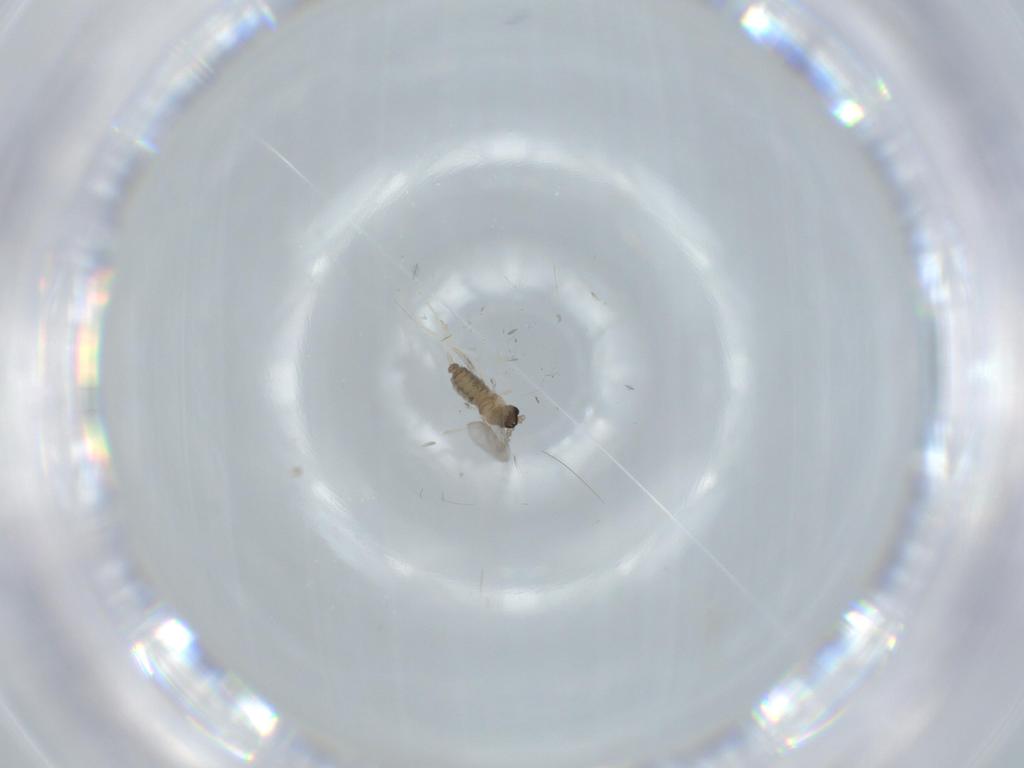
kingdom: Animalia
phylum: Arthropoda
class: Insecta
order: Diptera
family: Cecidomyiidae
